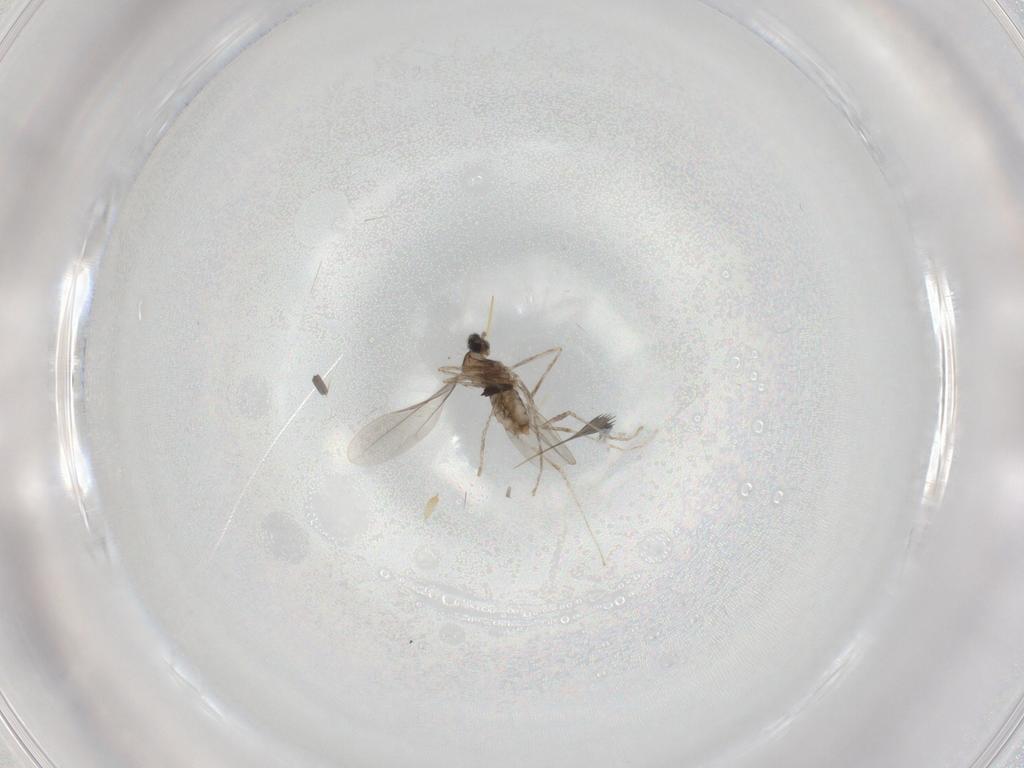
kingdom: Animalia
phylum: Arthropoda
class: Insecta
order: Diptera
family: Cecidomyiidae
